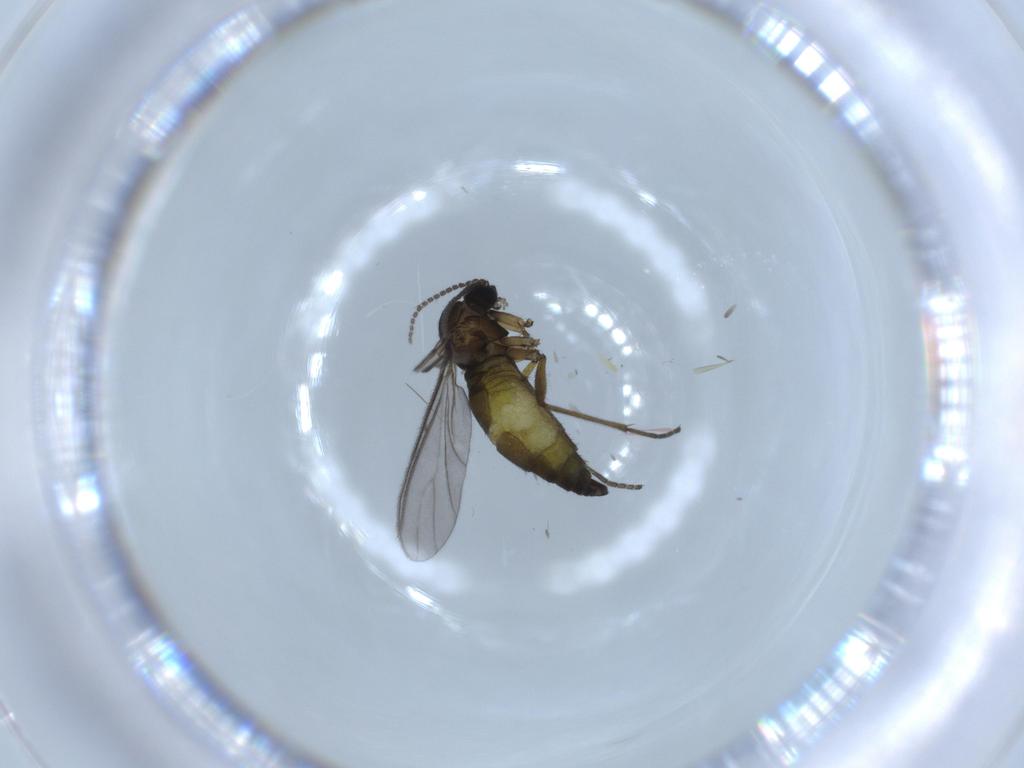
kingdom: Animalia
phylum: Arthropoda
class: Insecta
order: Diptera
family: Sciaridae
